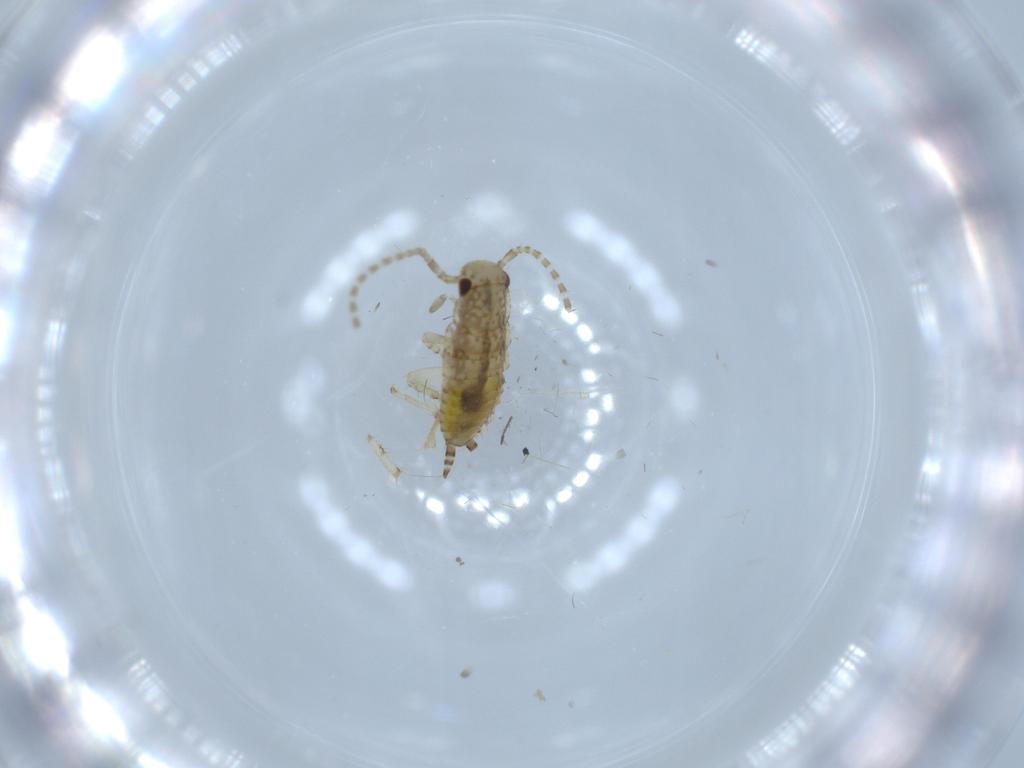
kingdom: Animalia
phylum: Arthropoda
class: Insecta
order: Blattodea
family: Ectobiidae
